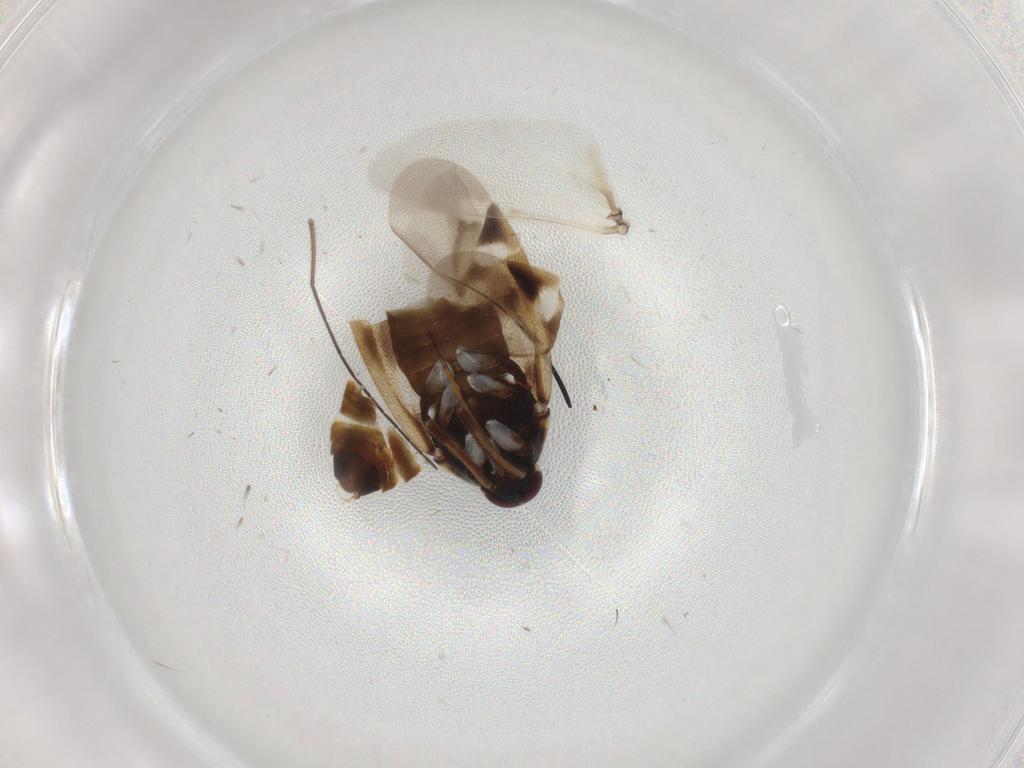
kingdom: Animalia
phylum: Arthropoda
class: Insecta
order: Hemiptera
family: Miridae
